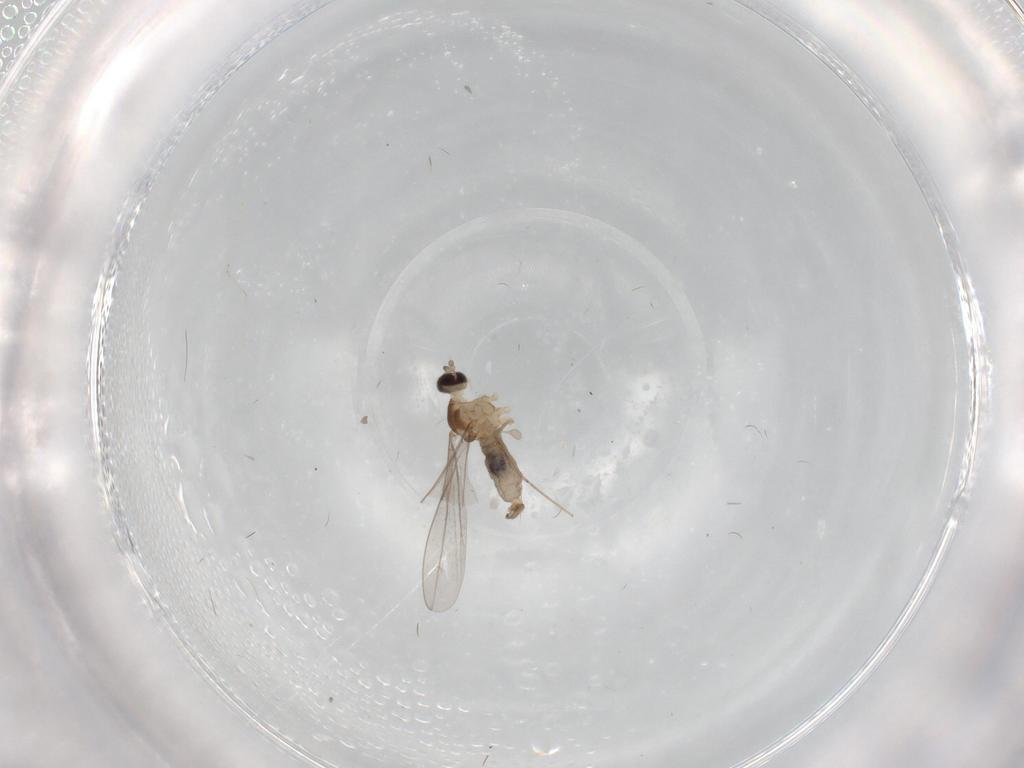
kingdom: Animalia
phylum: Arthropoda
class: Insecta
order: Diptera
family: Cecidomyiidae
